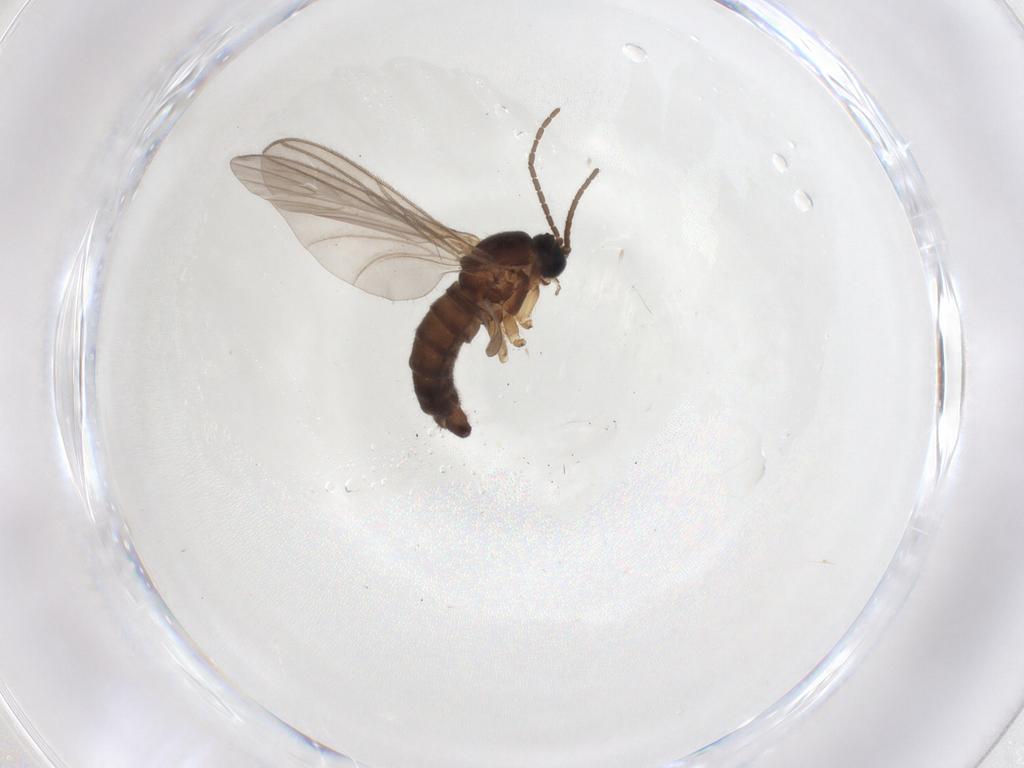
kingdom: Animalia
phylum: Arthropoda
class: Insecta
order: Diptera
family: Sciaridae
